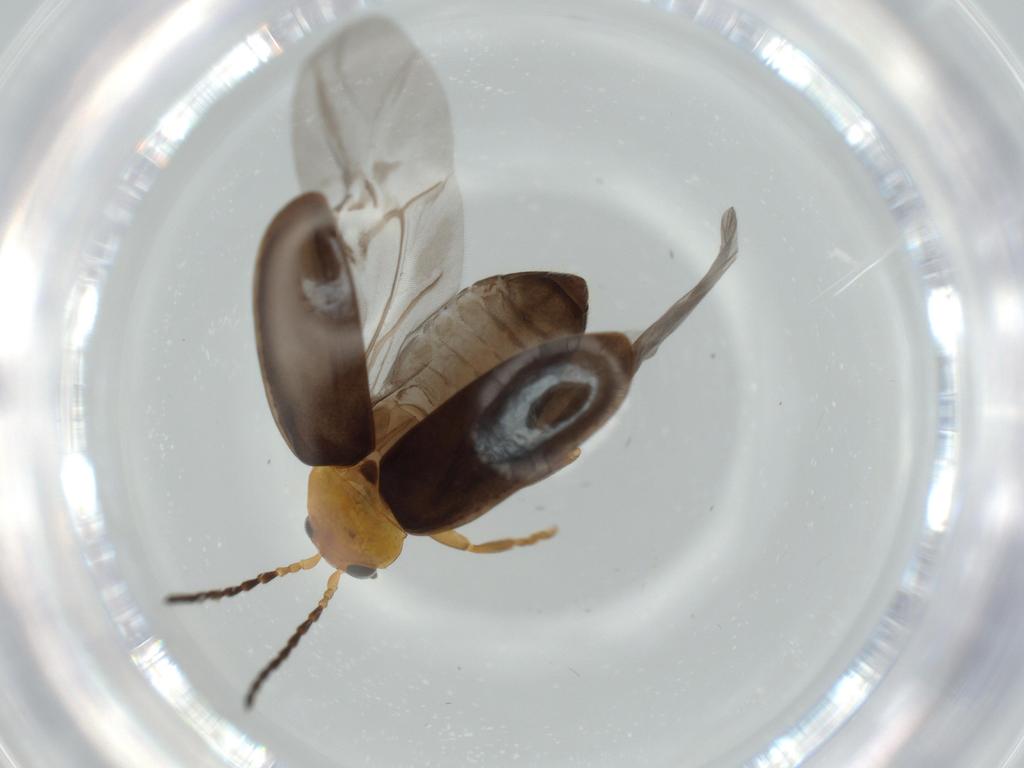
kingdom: Animalia
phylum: Arthropoda
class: Insecta
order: Coleoptera
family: Chrysomelidae
